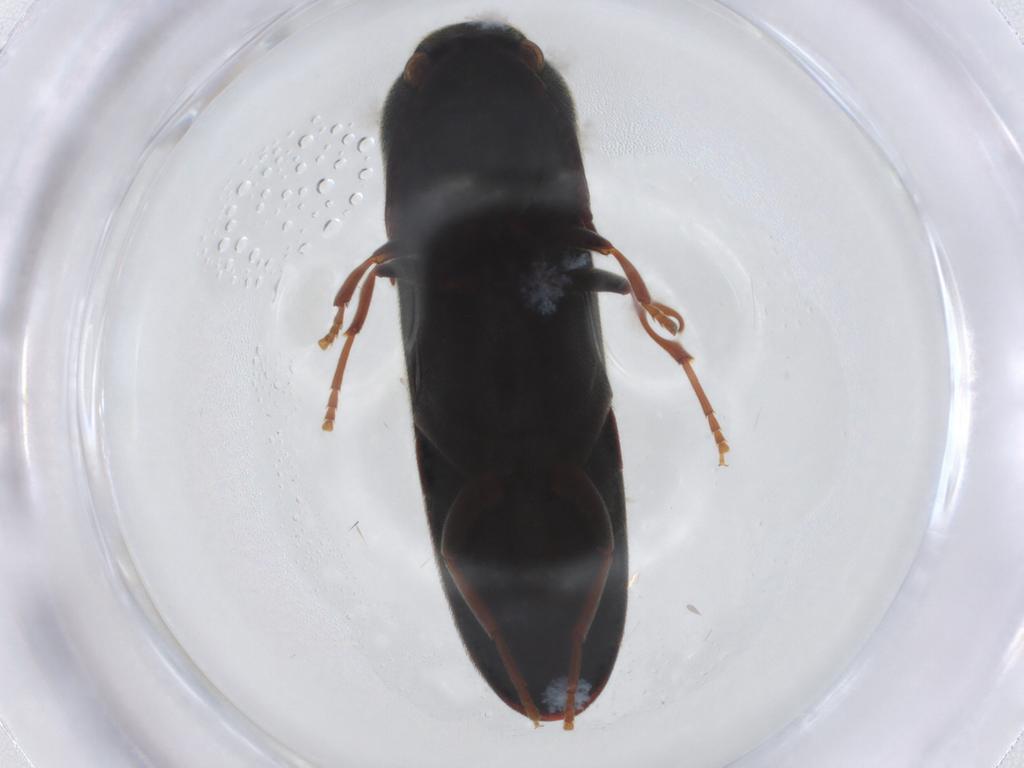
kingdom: Animalia
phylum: Arthropoda
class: Insecta
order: Coleoptera
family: Eucnemidae
